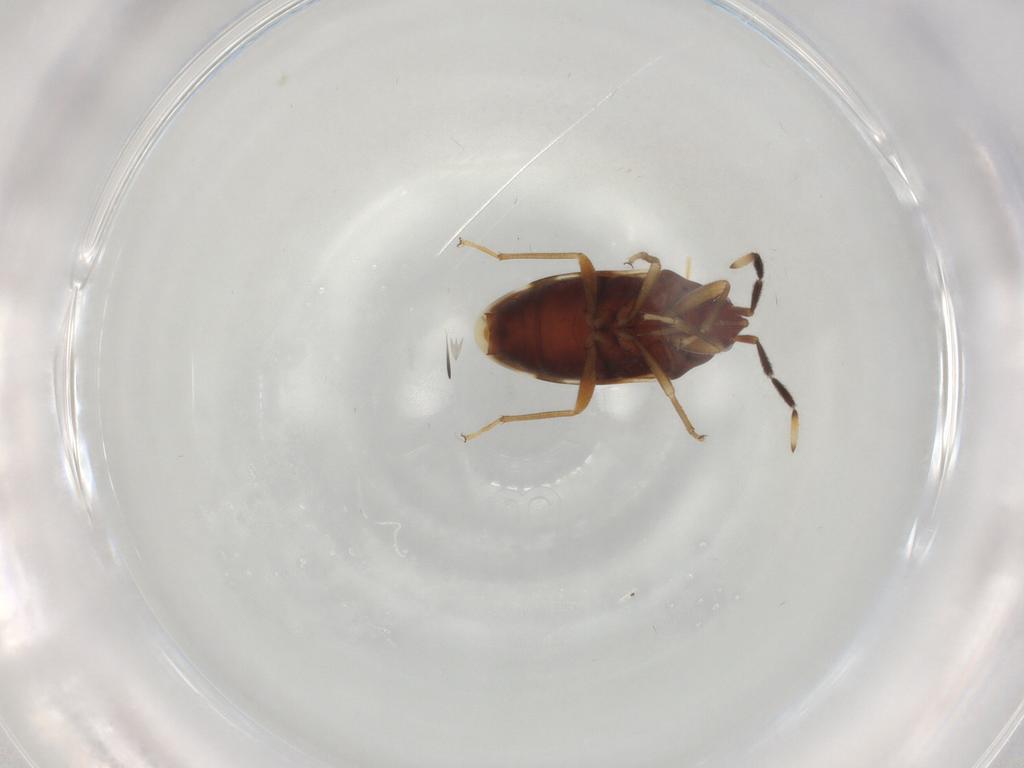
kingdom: Animalia
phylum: Arthropoda
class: Insecta
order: Hemiptera
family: Rhyparochromidae
